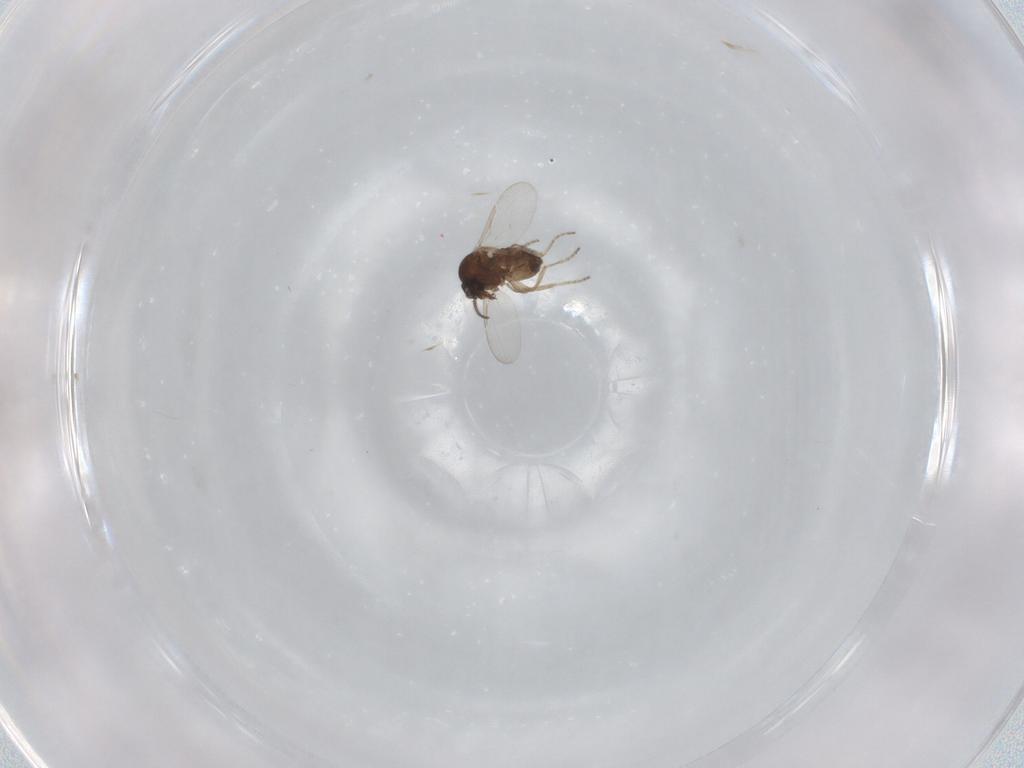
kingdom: Animalia
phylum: Arthropoda
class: Insecta
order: Diptera
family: Ceratopogonidae
